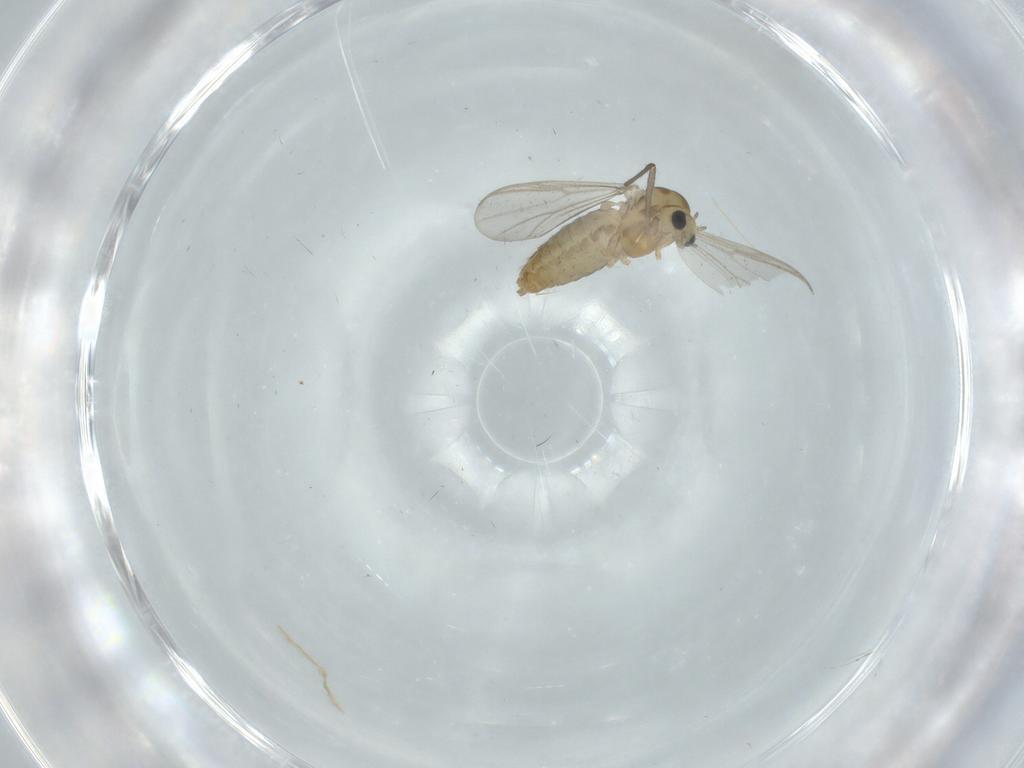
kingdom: Animalia
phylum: Arthropoda
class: Insecta
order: Diptera
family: Chironomidae
